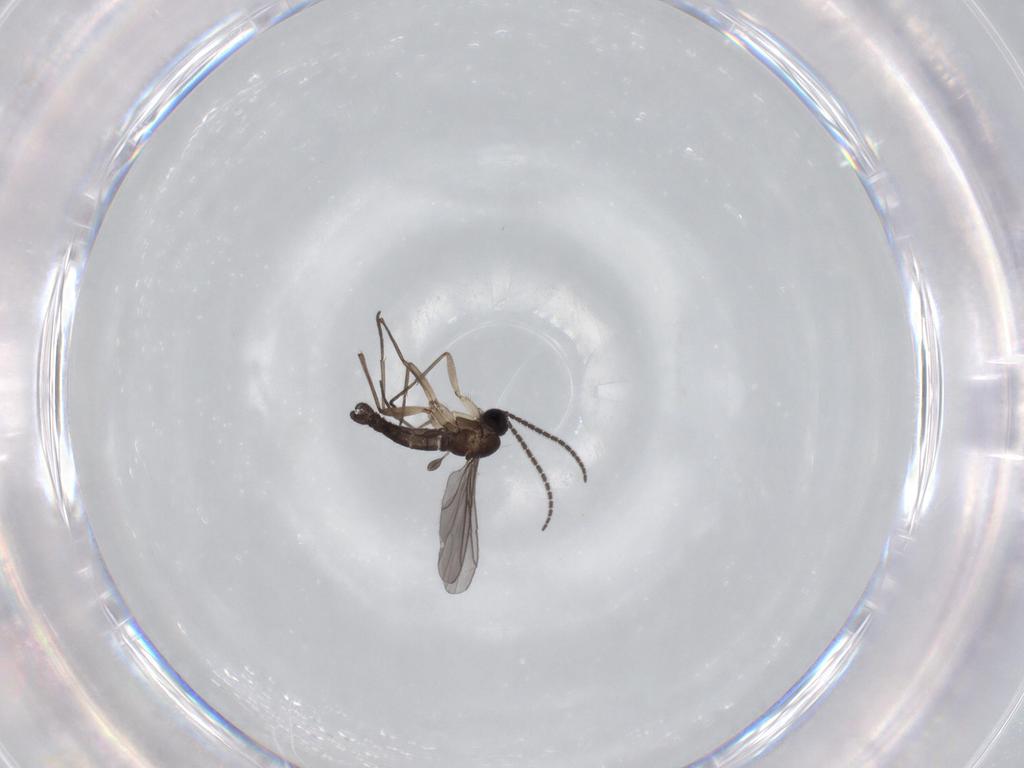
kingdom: Animalia
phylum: Arthropoda
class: Insecta
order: Diptera
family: Sciaridae
